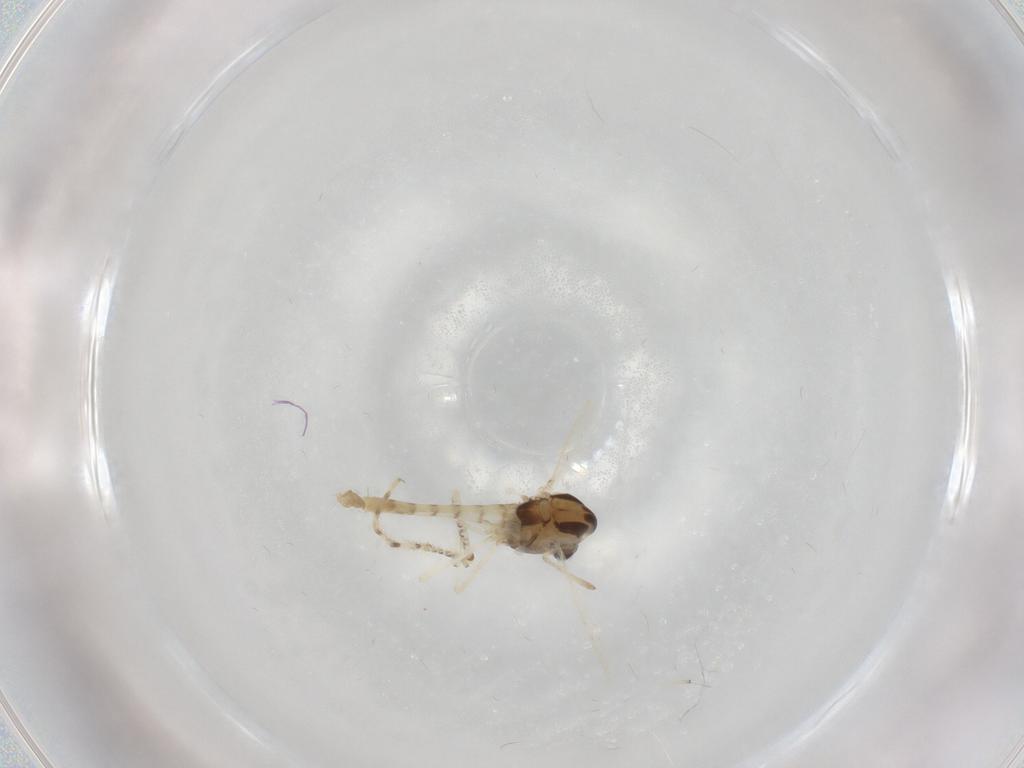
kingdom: Animalia
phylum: Arthropoda
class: Insecta
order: Diptera
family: Chironomidae
